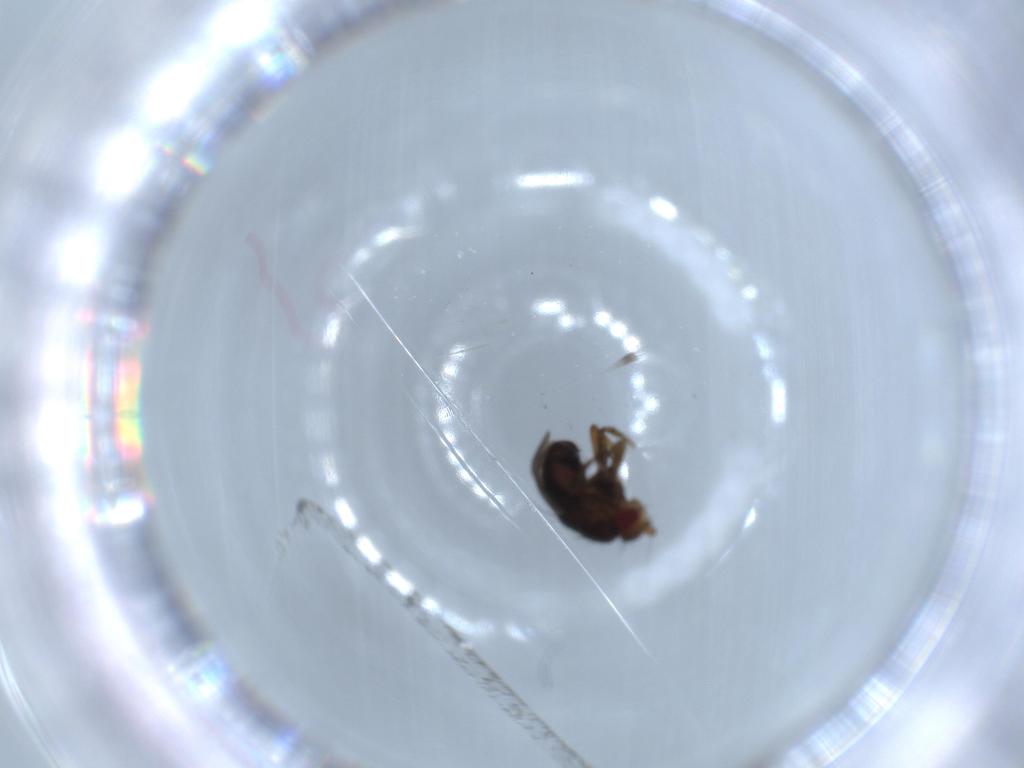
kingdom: Animalia
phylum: Arthropoda
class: Insecta
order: Diptera
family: Sphaeroceridae
